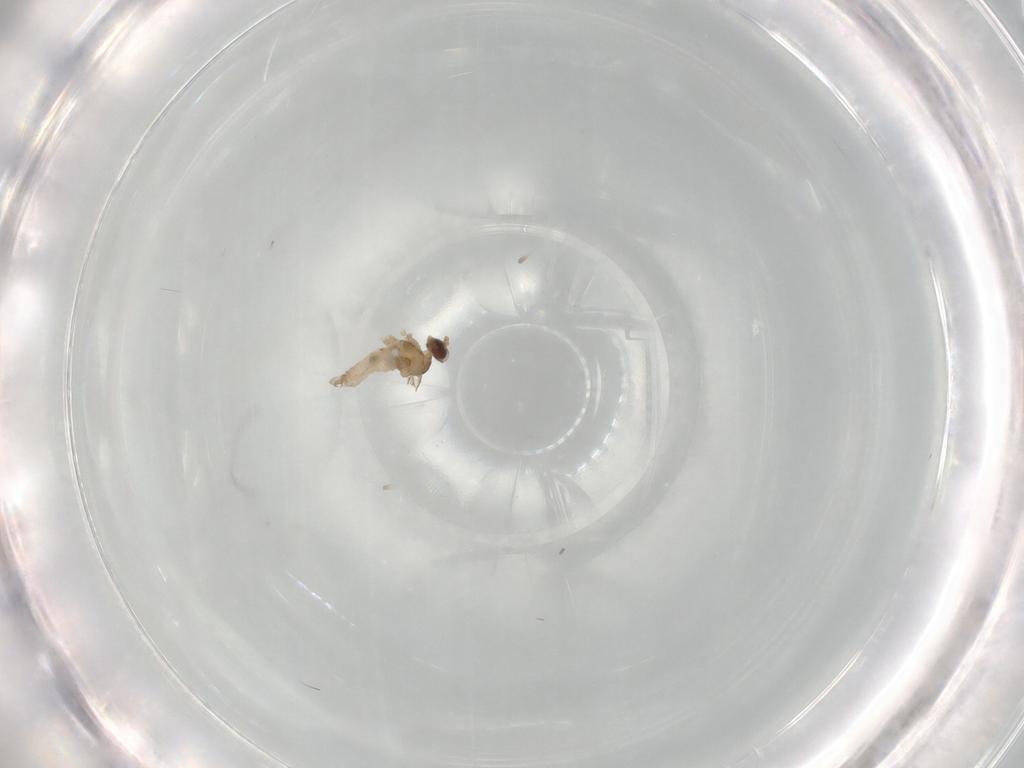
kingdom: Animalia
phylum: Arthropoda
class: Insecta
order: Diptera
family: Cecidomyiidae
